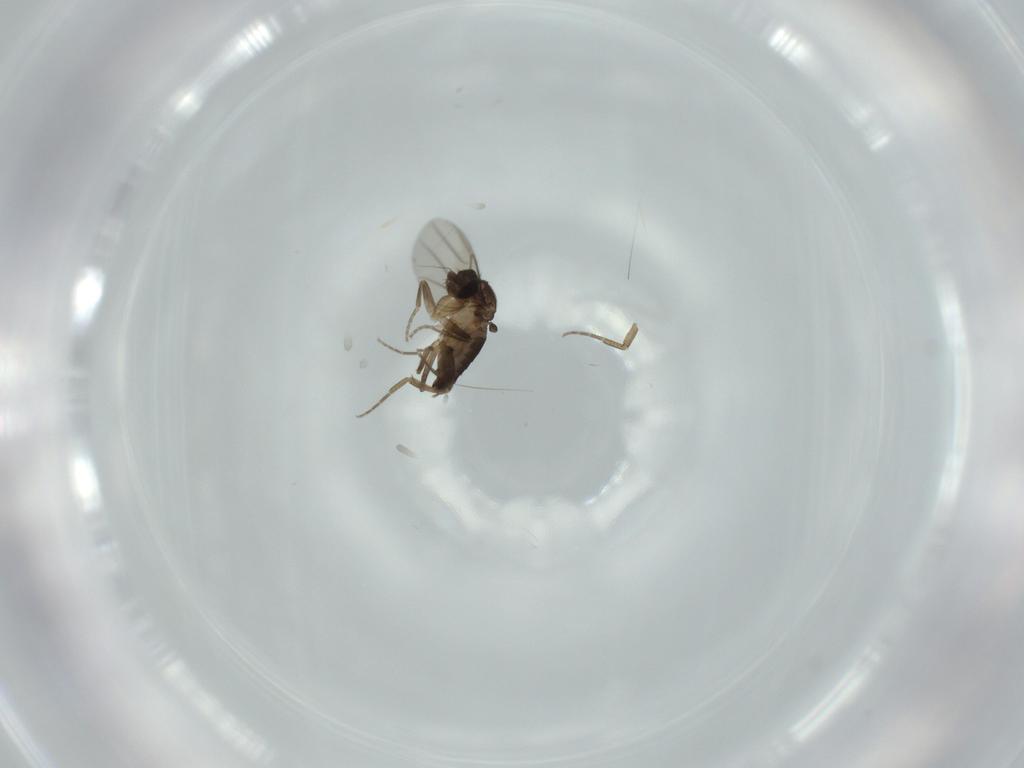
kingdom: Animalia
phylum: Arthropoda
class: Insecta
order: Diptera
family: Phoridae
